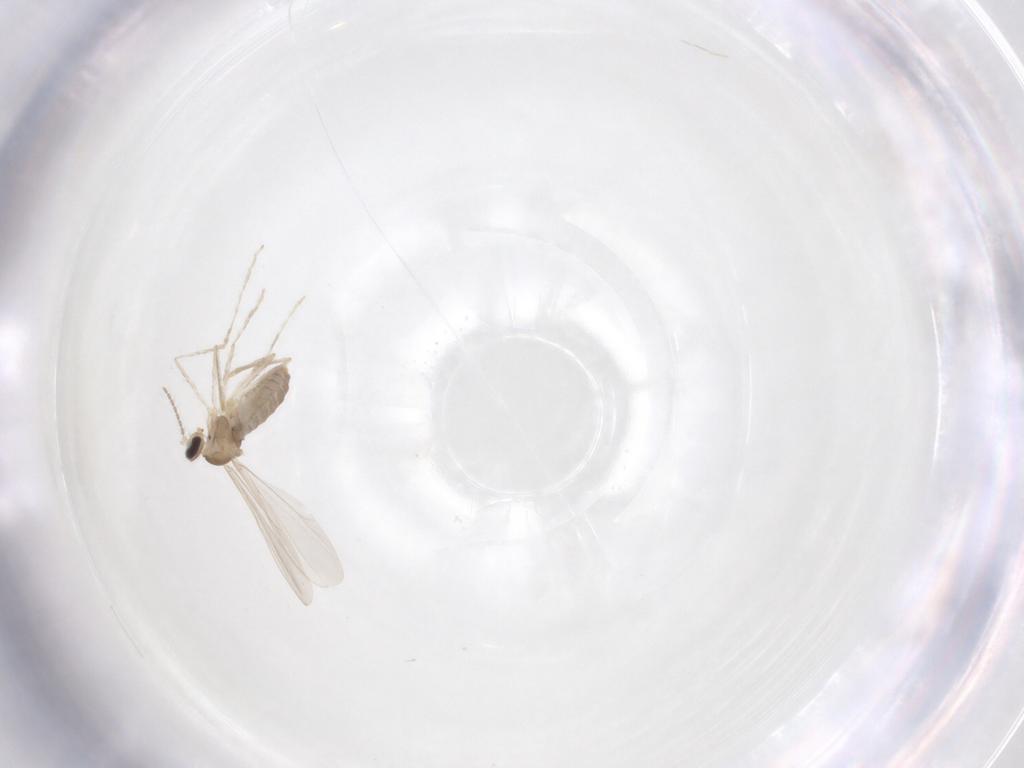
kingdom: Animalia
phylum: Arthropoda
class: Insecta
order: Diptera
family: Cecidomyiidae
